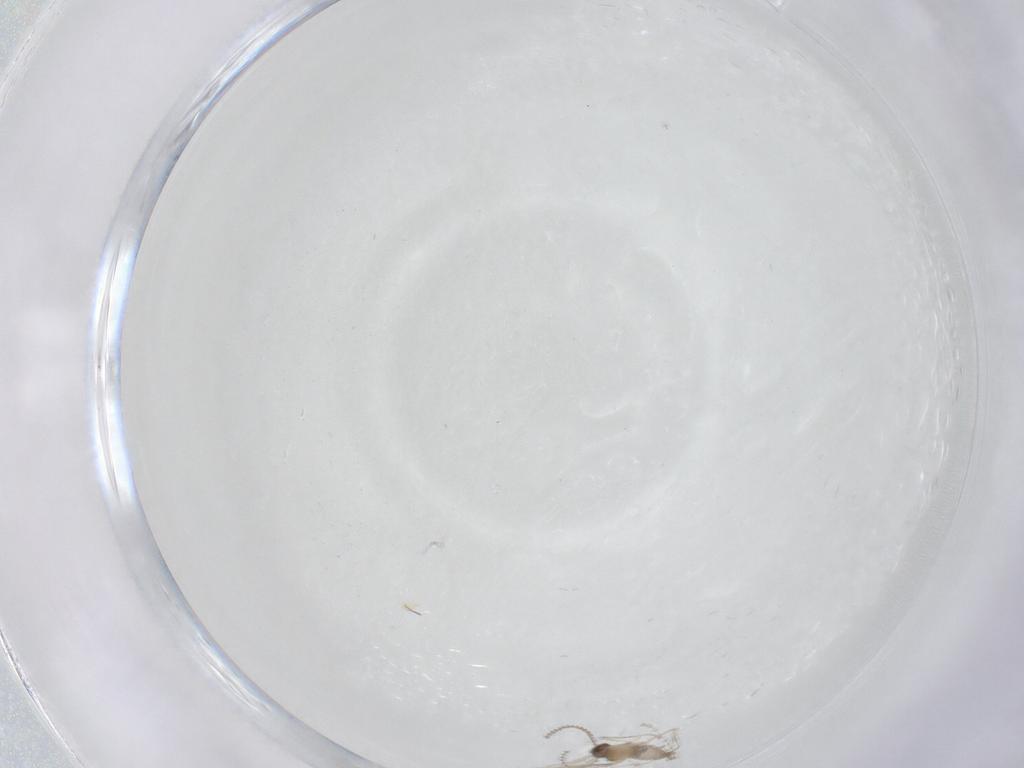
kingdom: Animalia
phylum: Arthropoda
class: Insecta
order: Diptera
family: Cecidomyiidae
